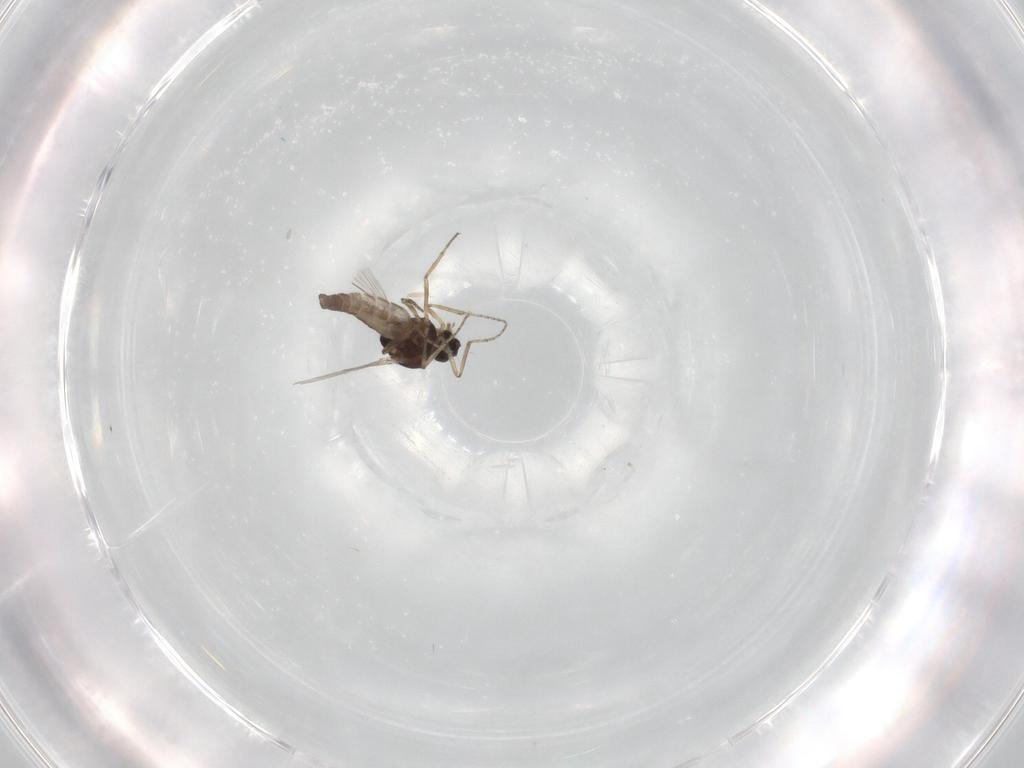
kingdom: Animalia
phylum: Arthropoda
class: Insecta
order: Diptera
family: Ceratopogonidae
